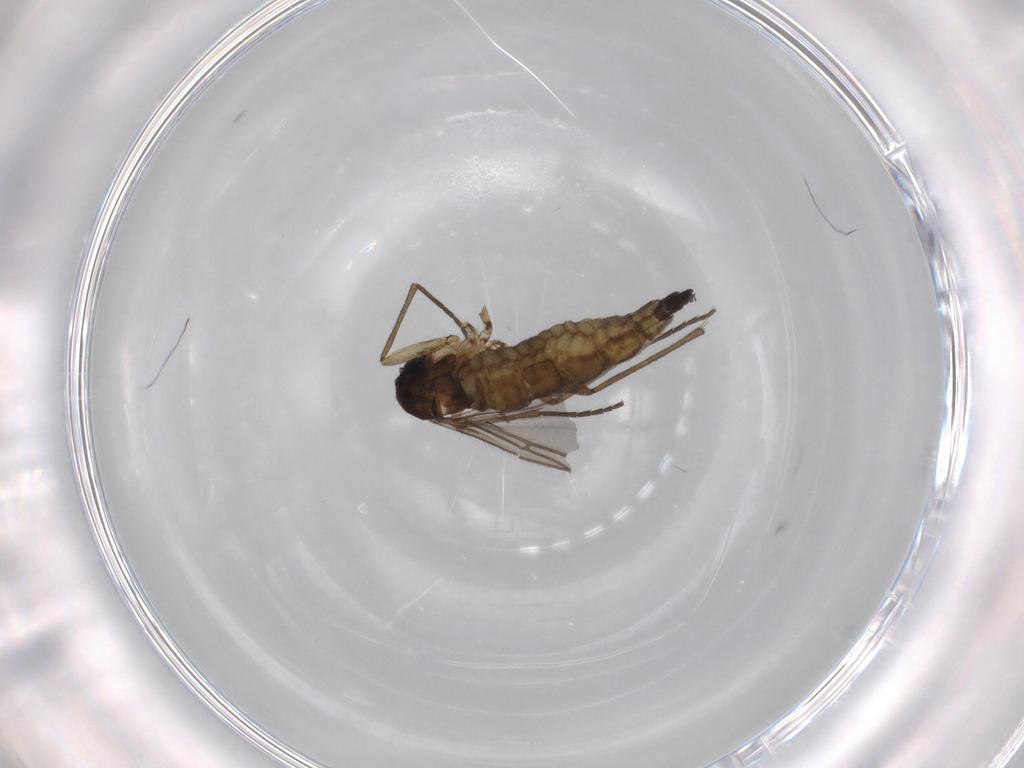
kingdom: Animalia
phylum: Arthropoda
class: Insecta
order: Diptera
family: Sciaridae
